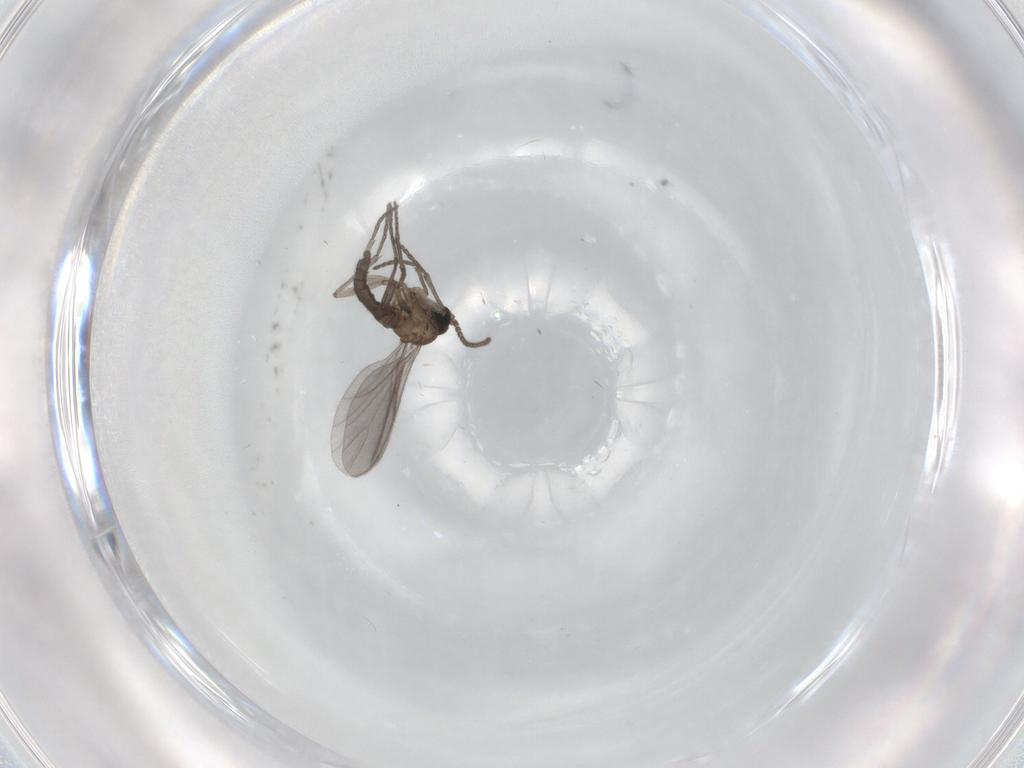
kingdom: Animalia
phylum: Arthropoda
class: Insecta
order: Diptera
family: Sciaridae
